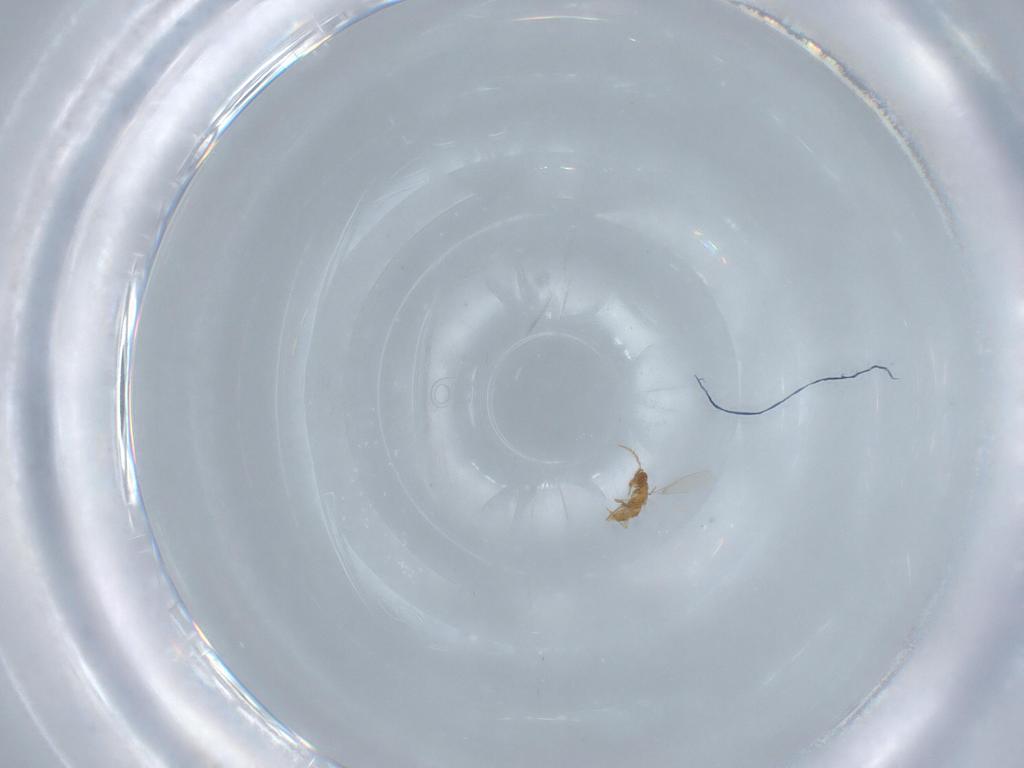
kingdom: Animalia
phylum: Arthropoda
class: Insecta
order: Hymenoptera
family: Aphelinidae
